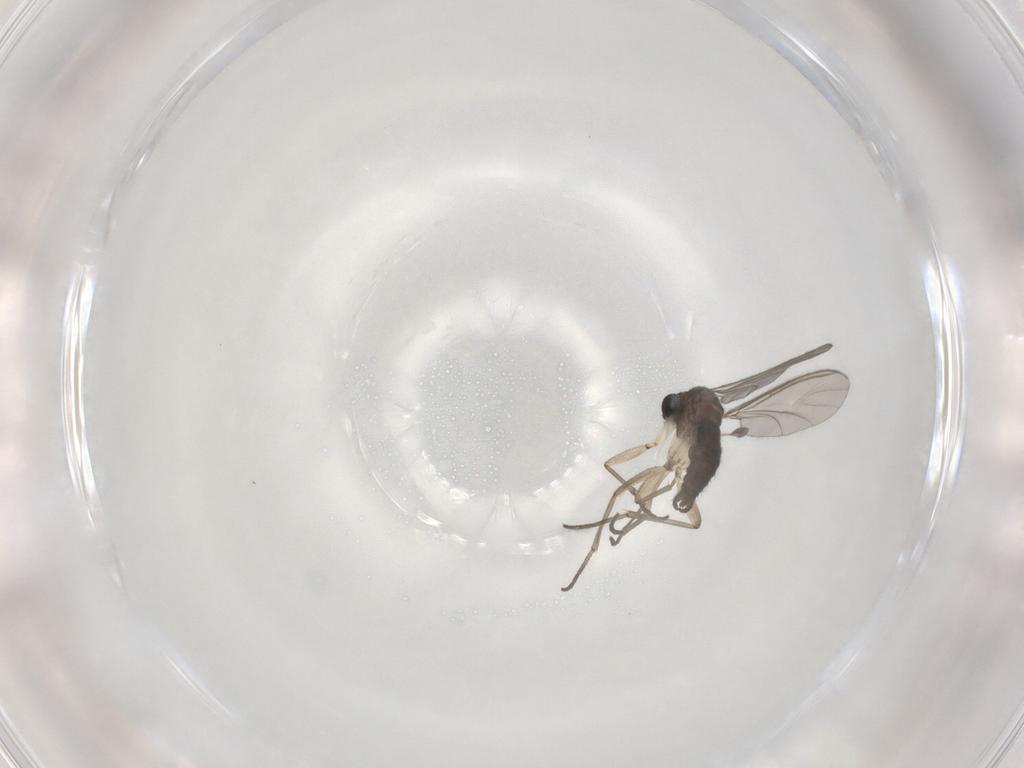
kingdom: Animalia
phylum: Arthropoda
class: Insecta
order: Diptera
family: Sciaridae
